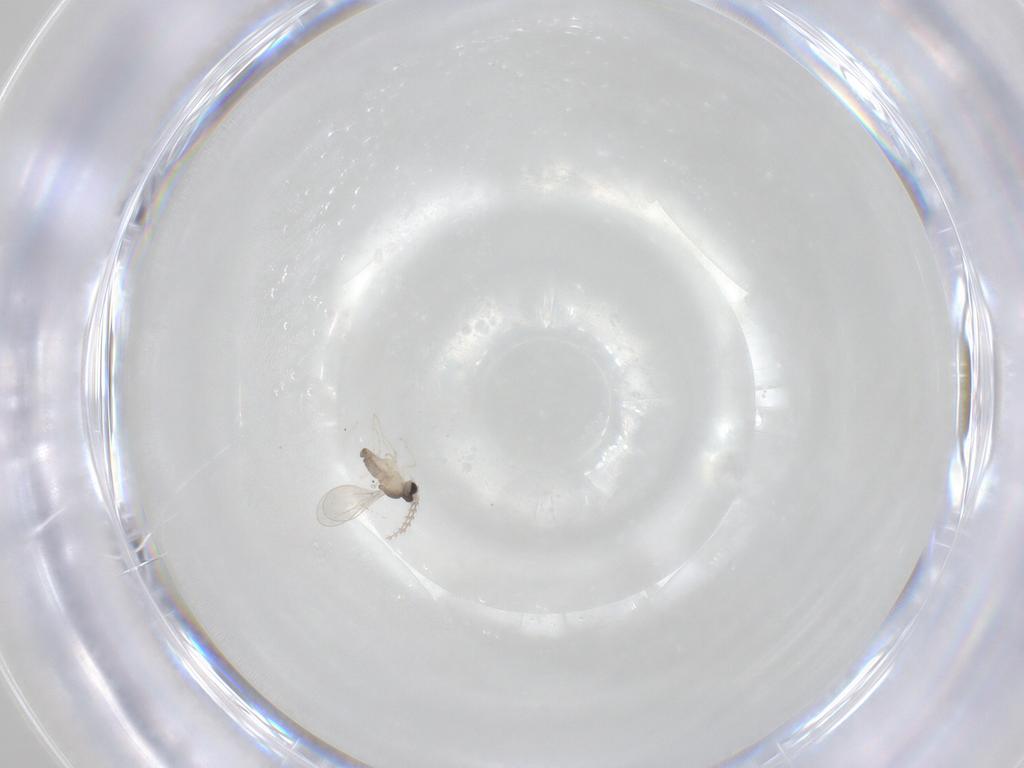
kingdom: Animalia
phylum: Arthropoda
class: Insecta
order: Diptera
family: Cecidomyiidae
